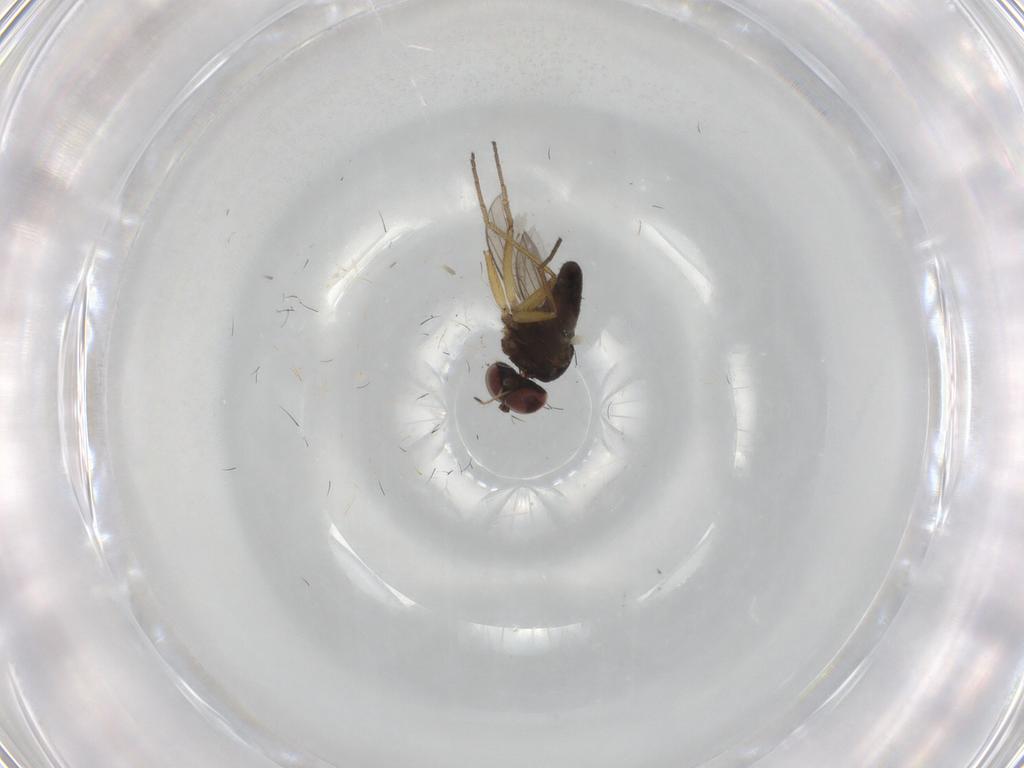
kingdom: Animalia
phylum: Arthropoda
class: Insecta
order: Diptera
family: Dolichopodidae
